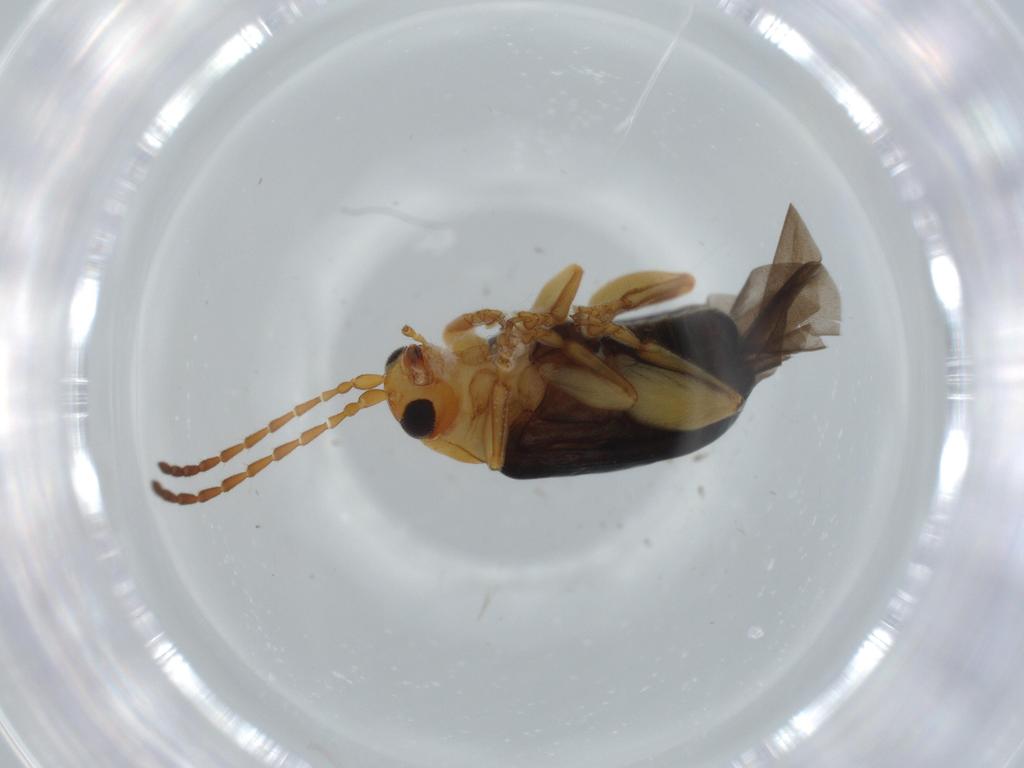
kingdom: Animalia
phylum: Arthropoda
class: Insecta
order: Coleoptera
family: Chrysomelidae
